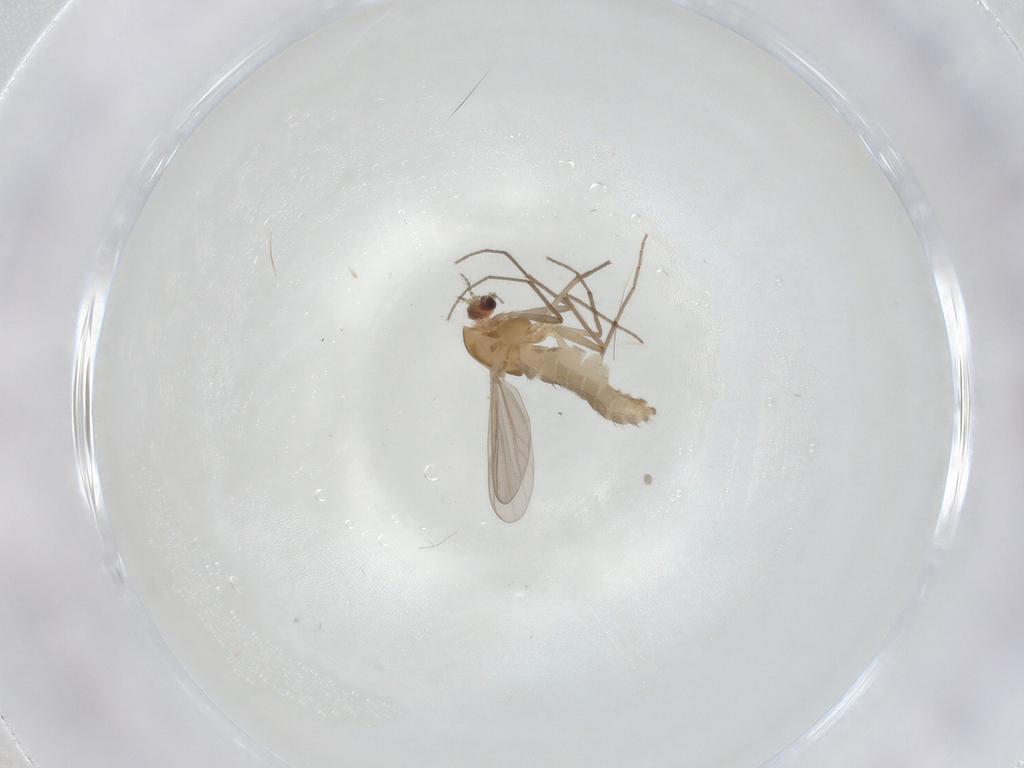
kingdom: Animalia
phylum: Arthropoda
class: Insecta
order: Diptera
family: Chironomidae
